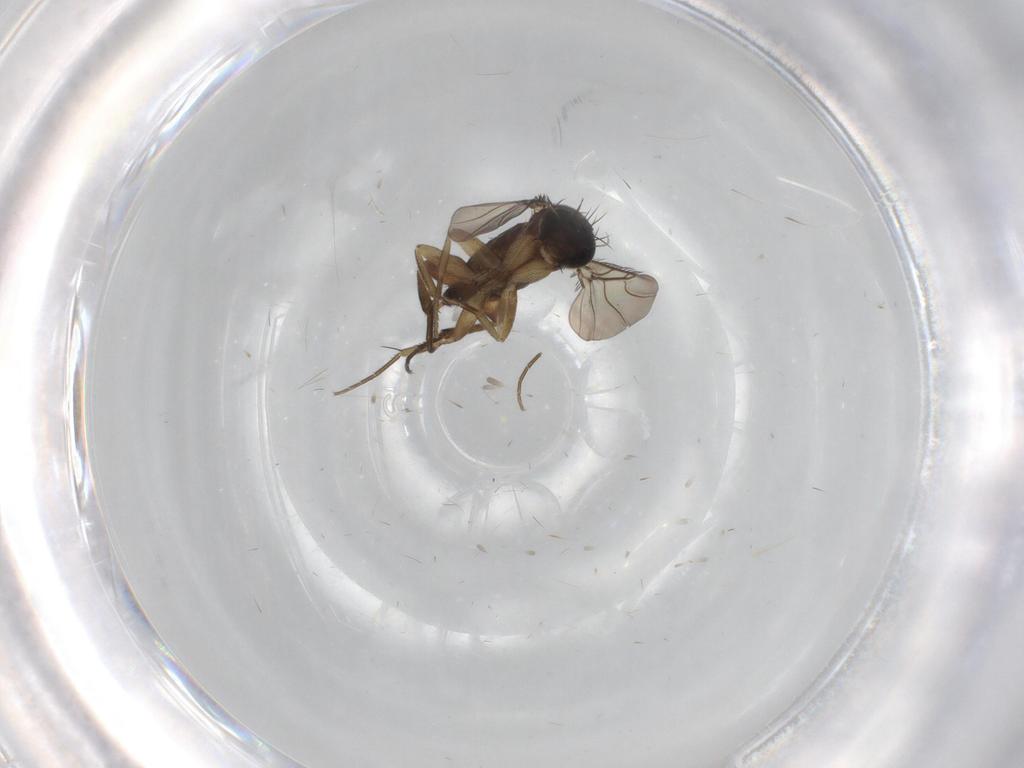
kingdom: Animalia
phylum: Arthropoda
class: Insecta
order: Diptera
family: Phoridae
